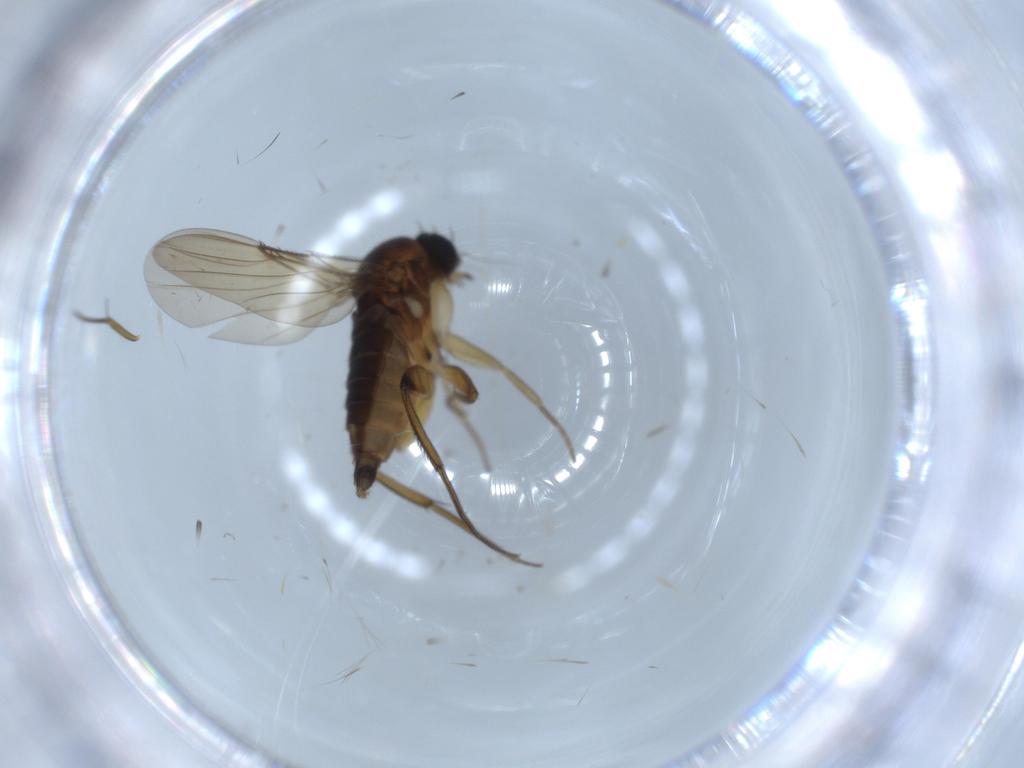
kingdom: Animalia
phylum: Arthropoda
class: Insecta
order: Diptera
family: Phoridae
